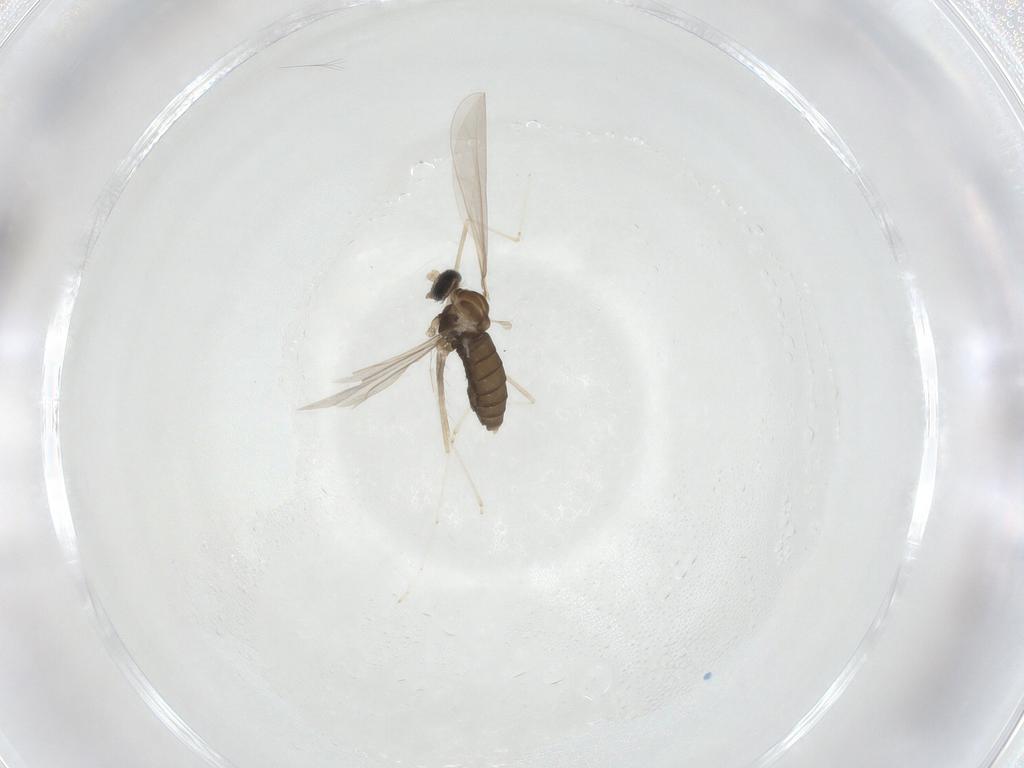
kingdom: Animalia
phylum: Arthropoda
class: Insecta
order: Diptera
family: Cecidomyiidae
